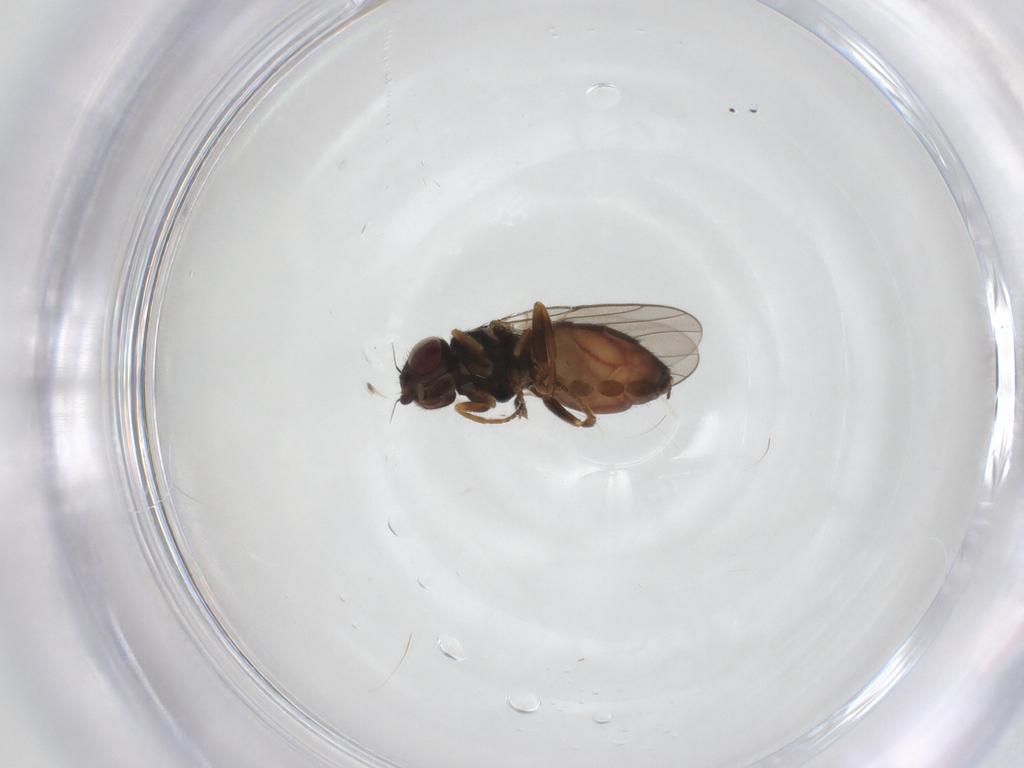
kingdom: Animalia
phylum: Arthropoda
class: Insecta
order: Diptera
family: Chloropidae
